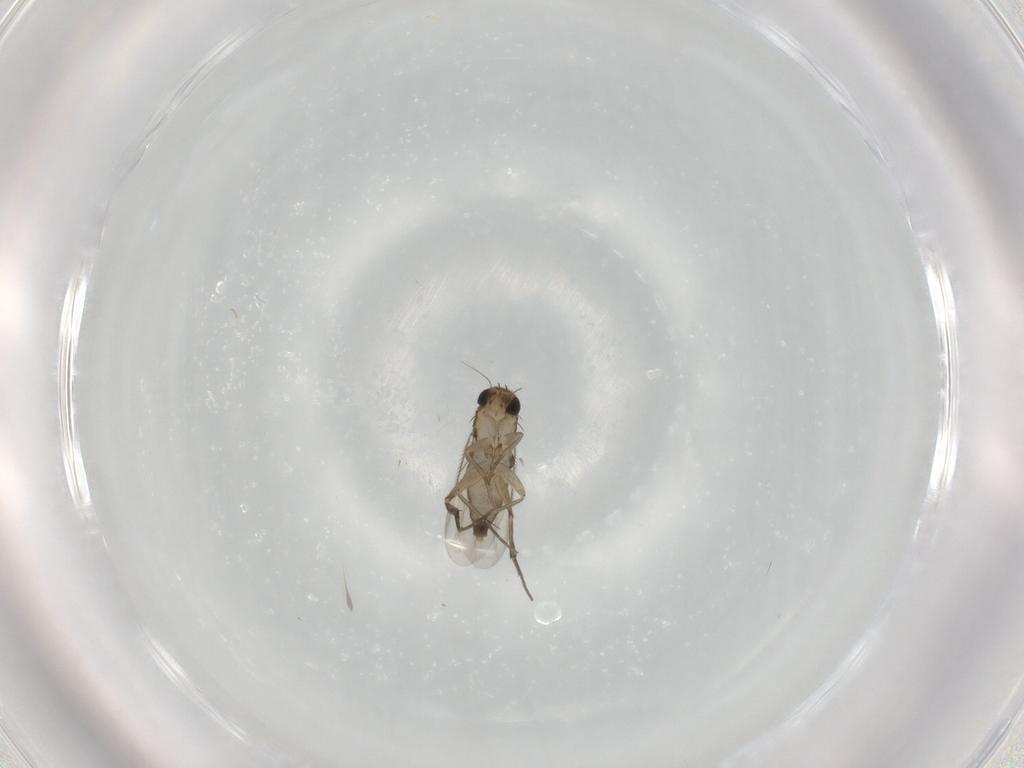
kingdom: Animalia
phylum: Arthropoda
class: Insecta
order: Diptera
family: Phoridae
